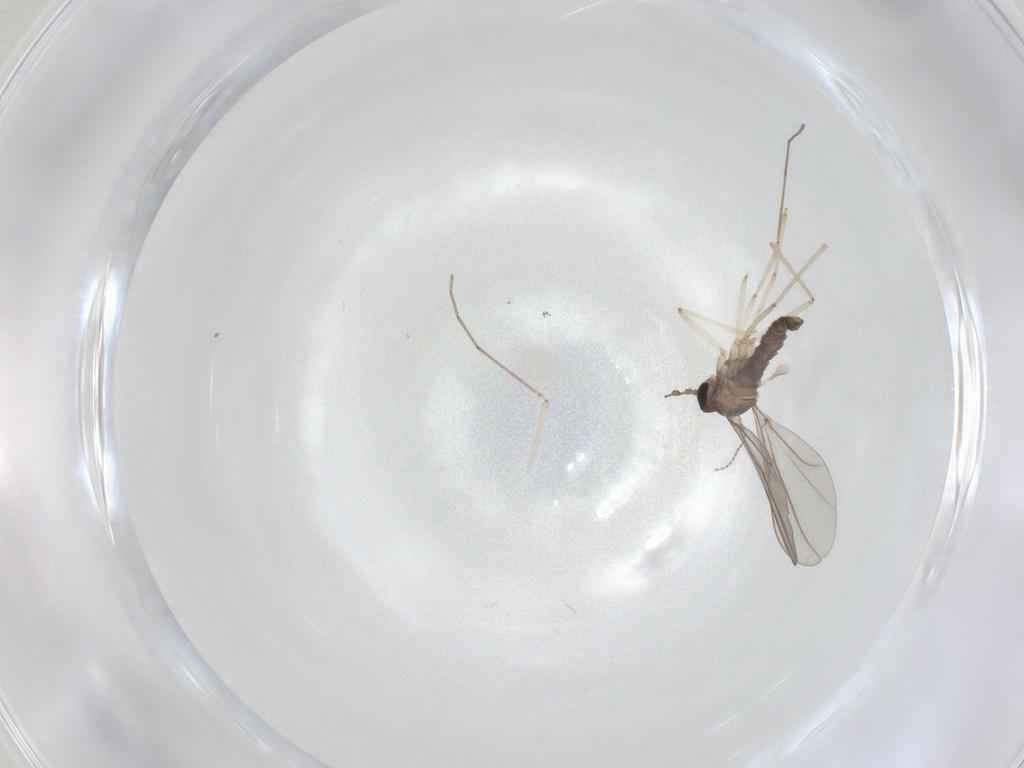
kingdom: Animalia
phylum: Arthropoda
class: Insecta
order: Diptera
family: Cecidomyiidae
